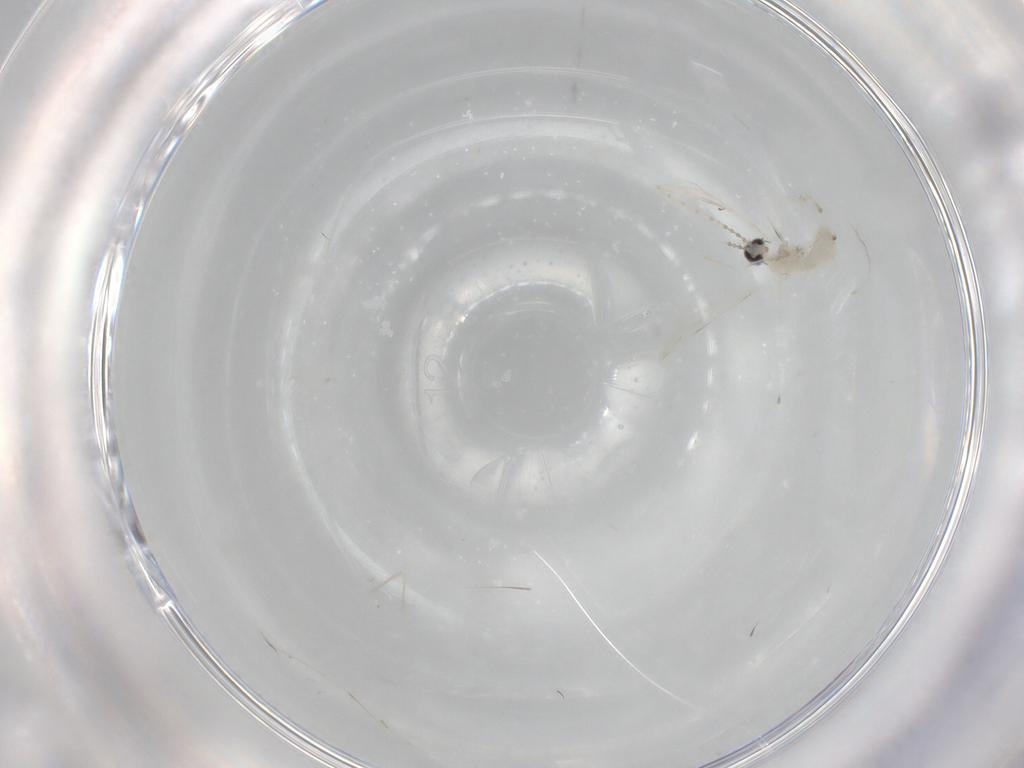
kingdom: Animalia
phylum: Arthropoda
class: Insecta
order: Diptera
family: Cecidomyiidae
